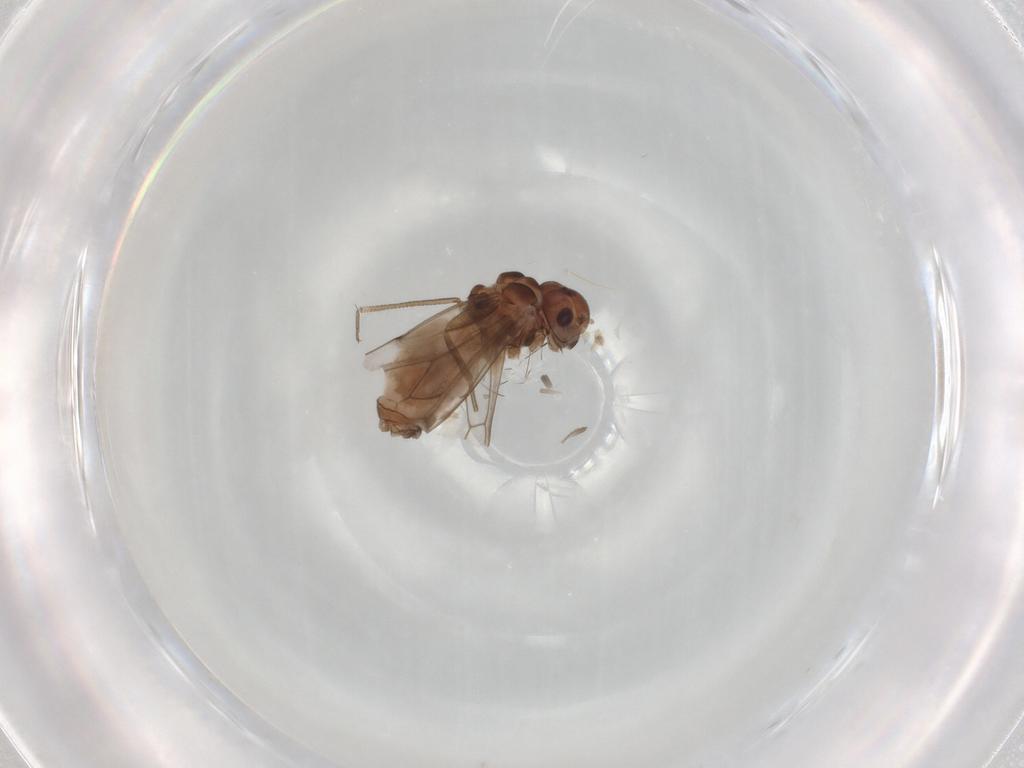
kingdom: Animalia
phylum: Arthropoda
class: Insecta
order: Psocodea
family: Peripsocidae
